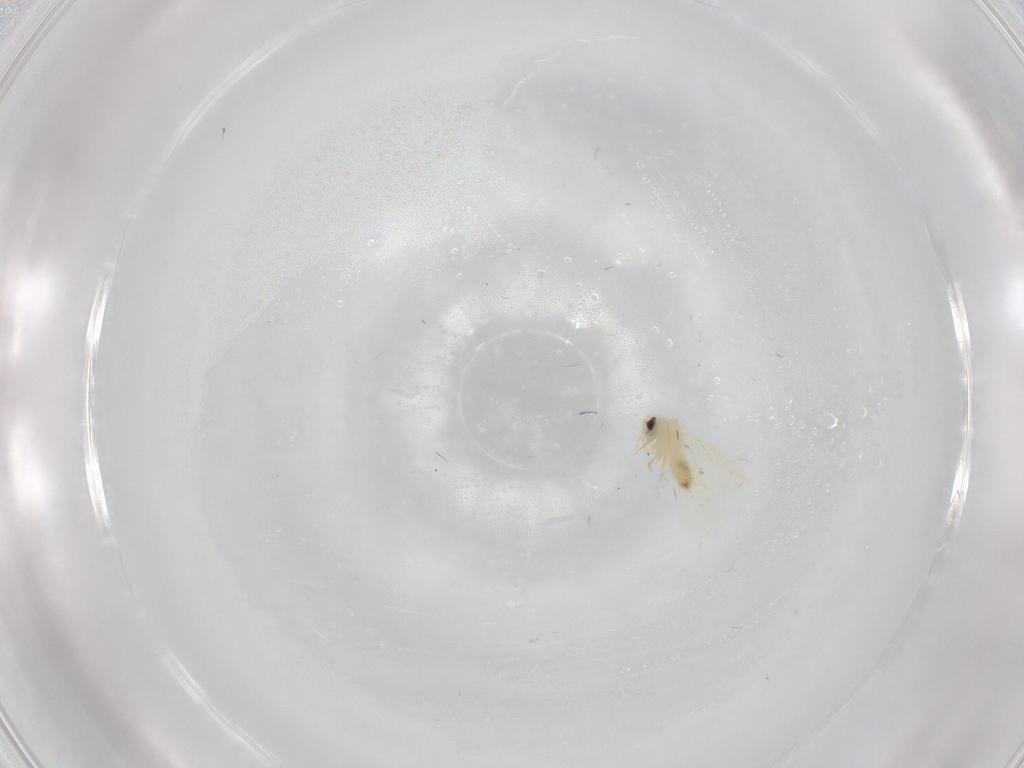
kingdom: Animalia
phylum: Arthropoda
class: Insecta
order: Hemiptera
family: Aleyrodidae
